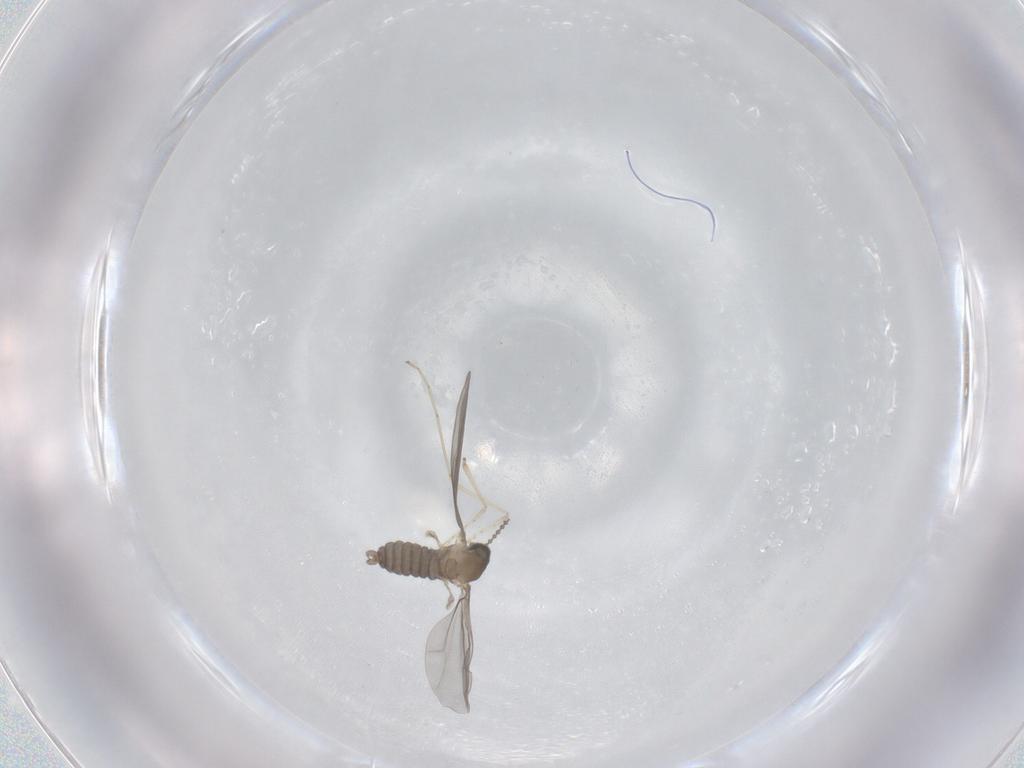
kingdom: Animalia
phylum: Arthropoda
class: Insecta
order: Diptera
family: Cecidomyiidae
